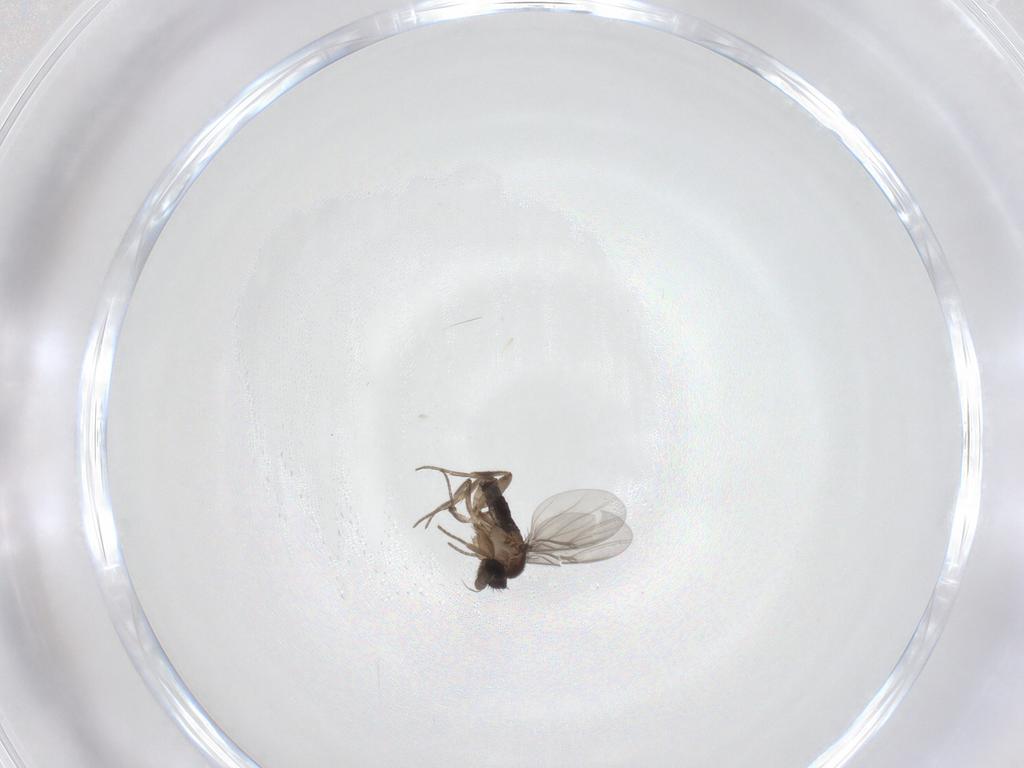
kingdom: Animalia
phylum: Arthropoda
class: Insecta
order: Diptera
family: Phoridae
